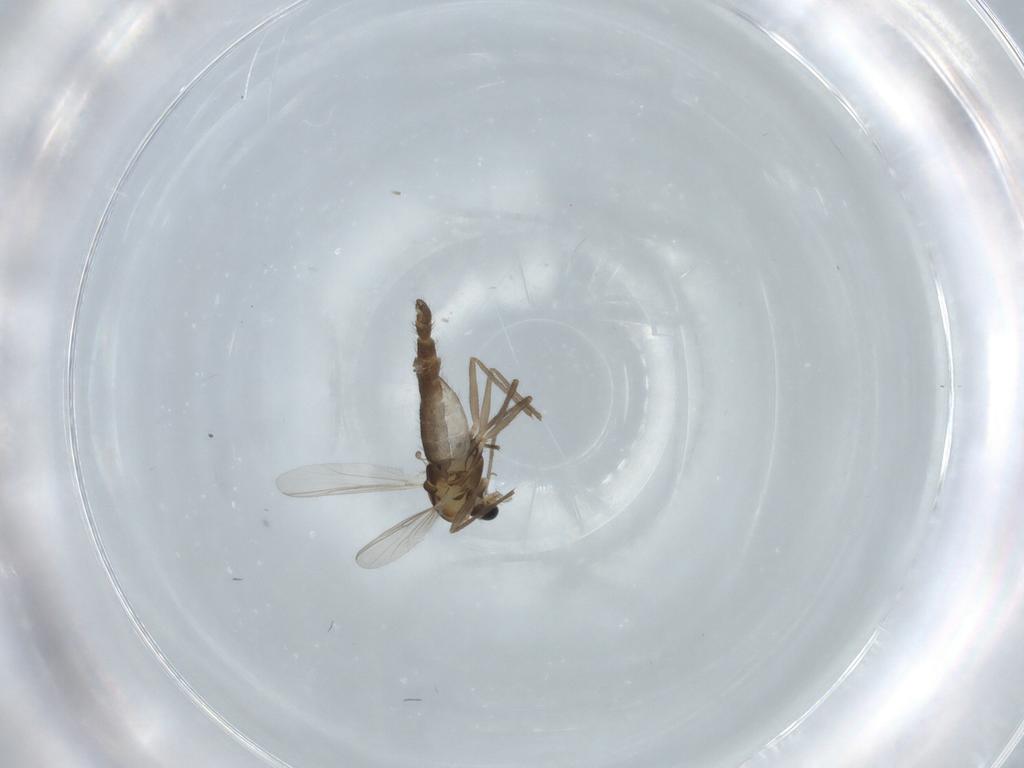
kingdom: Animalia
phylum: Arthropoda
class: Insecta
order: Diptera
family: Micropezidae
